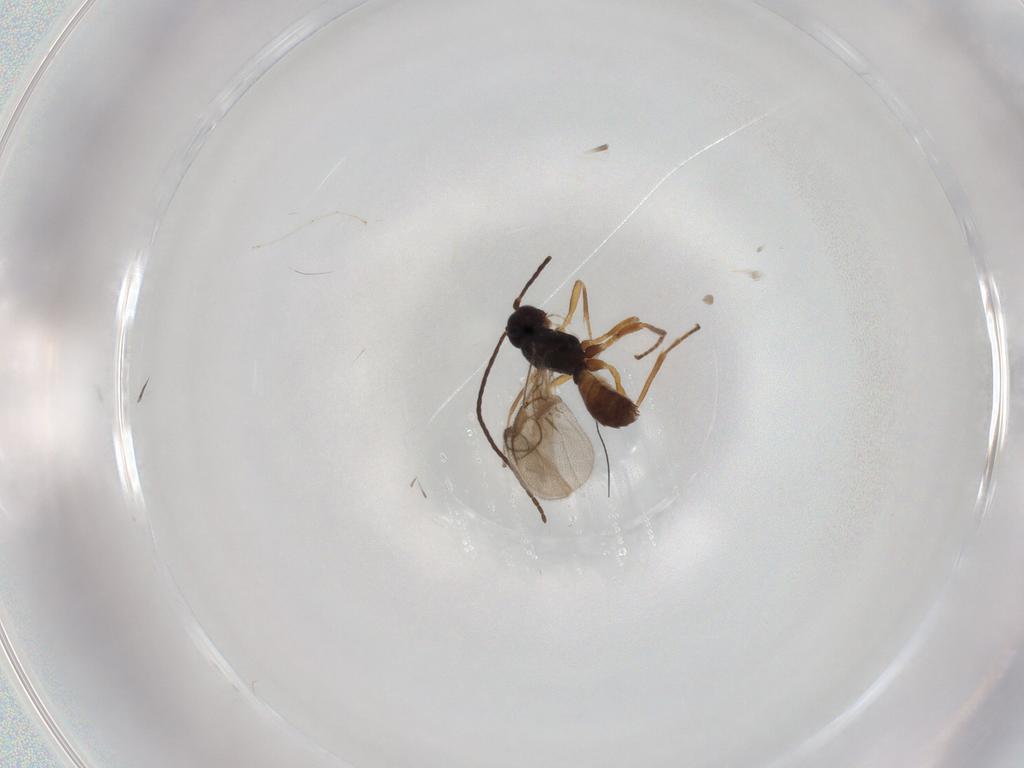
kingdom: Animalia
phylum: Arthropoda
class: Insecta
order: Hymenoptera
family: Braconidae
